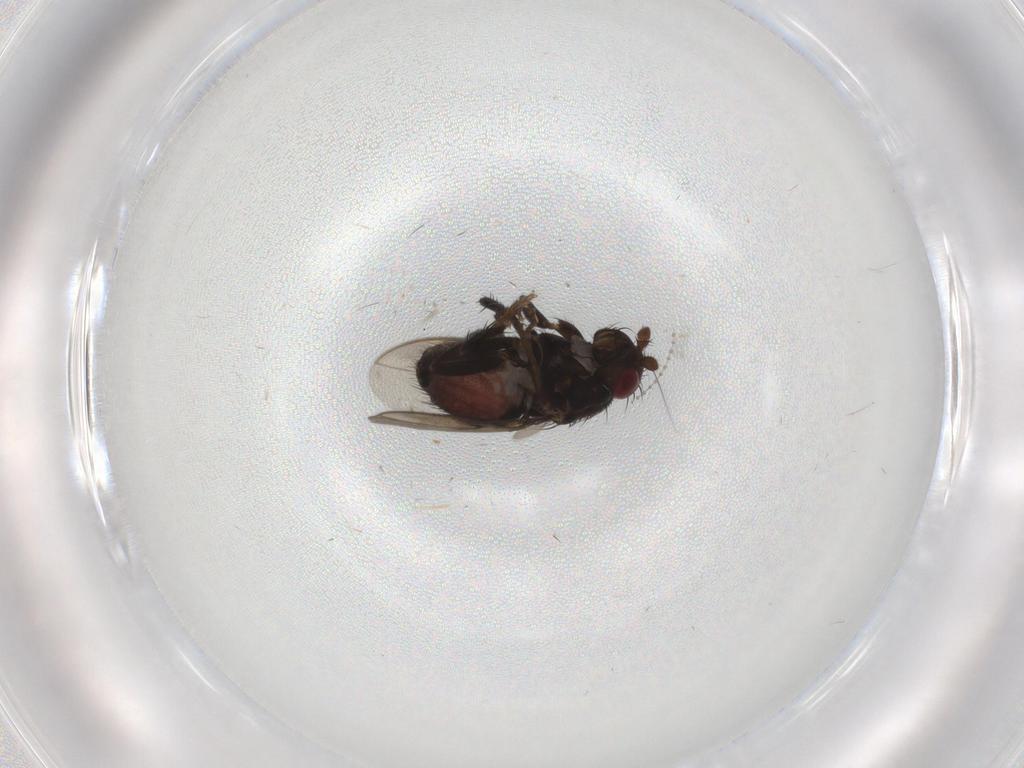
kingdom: Animalia
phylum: Arthropoda
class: Insecta
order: Diptera
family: Sphaeroceridae
